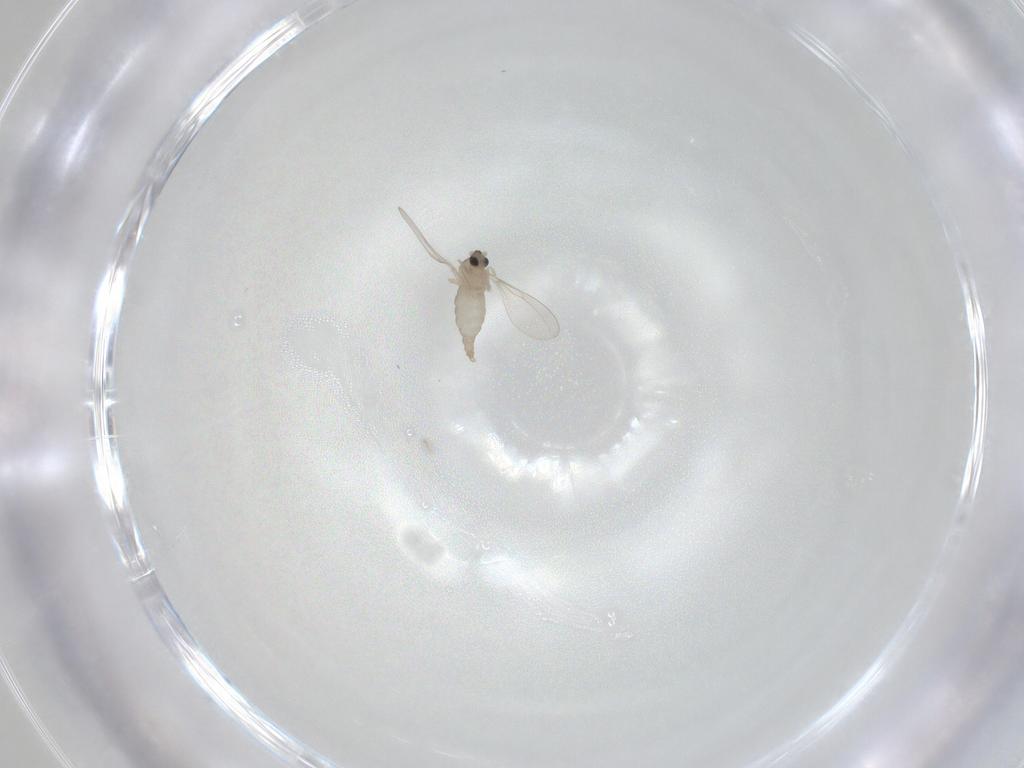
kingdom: Animalia
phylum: Arthropoda
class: Insecta
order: Diptera
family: Cecidomyiidae
